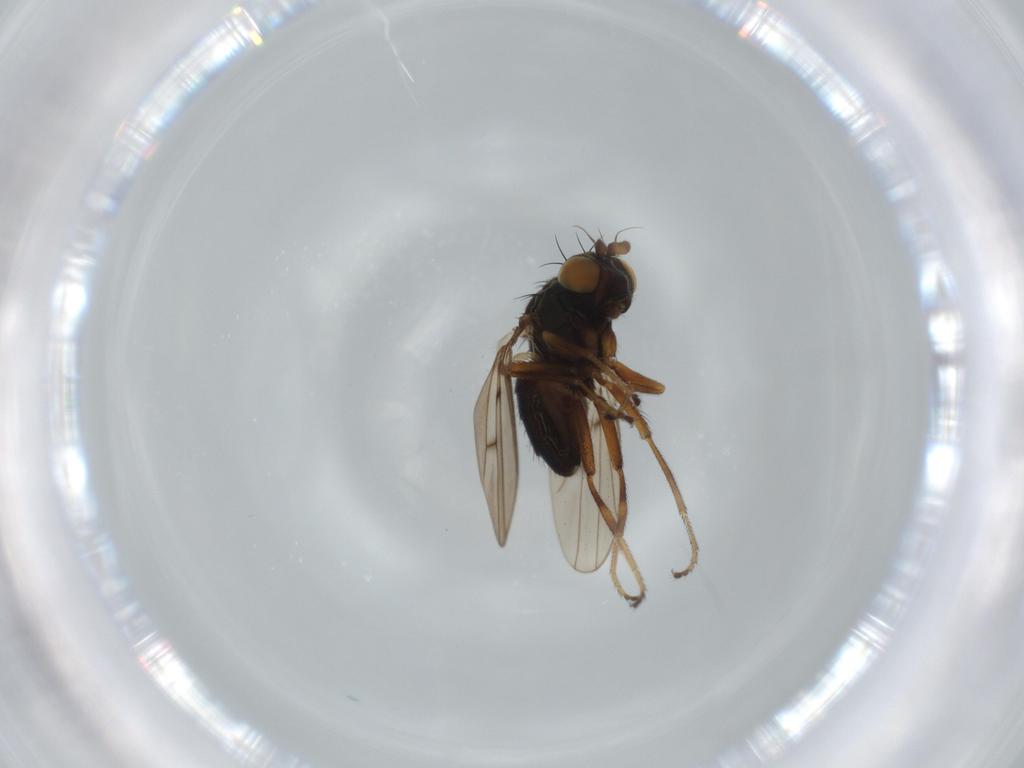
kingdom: Animalia
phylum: Arthropoda
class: Insecta
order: Diptera
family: Ephydridae
